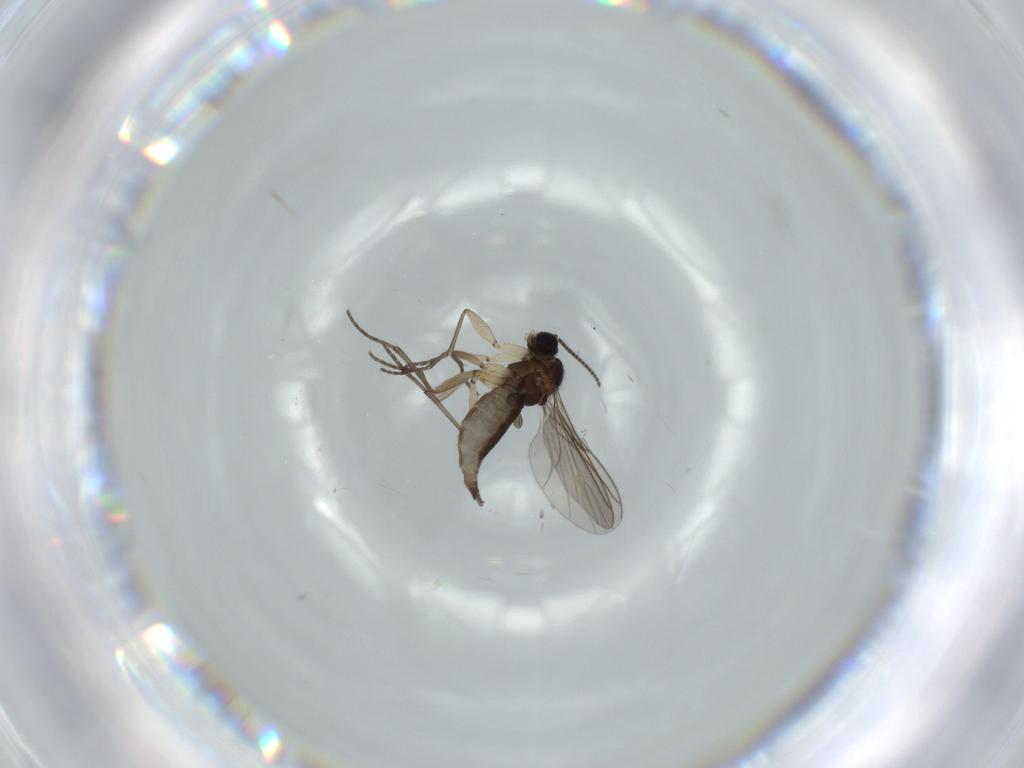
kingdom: Animalia
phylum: Arthropoda
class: Insecta
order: Diptera
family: Sciaridae
